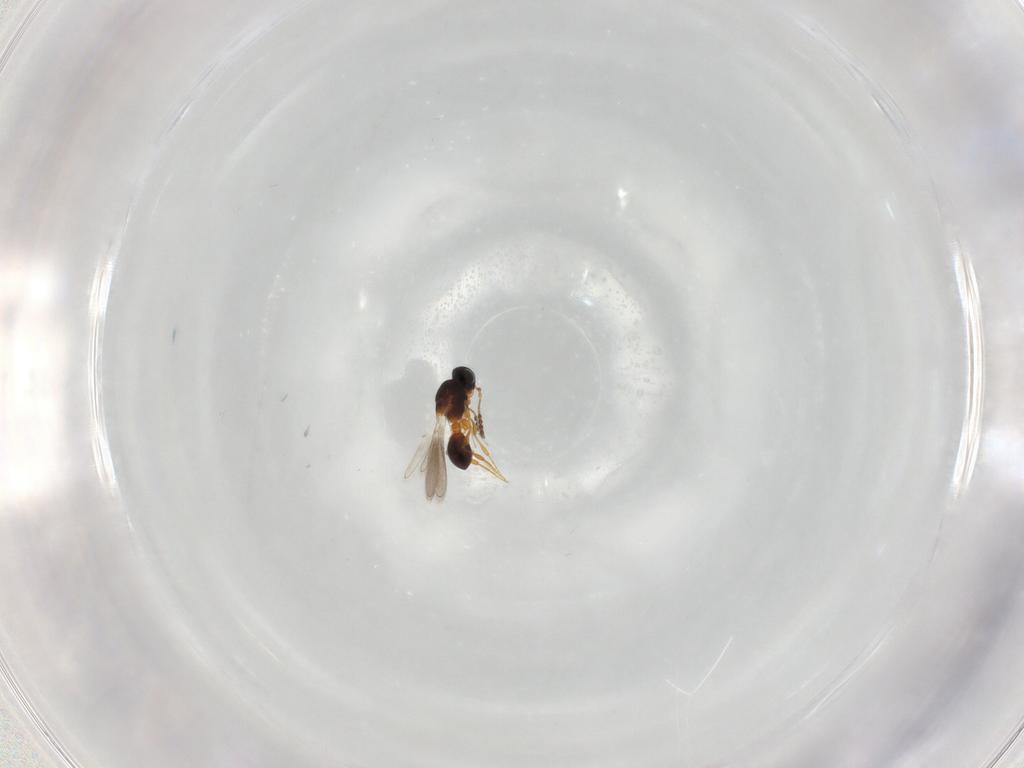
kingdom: Animalia
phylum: Arthropoda
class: Insecta
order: Hymenoptera
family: Platygastridae
